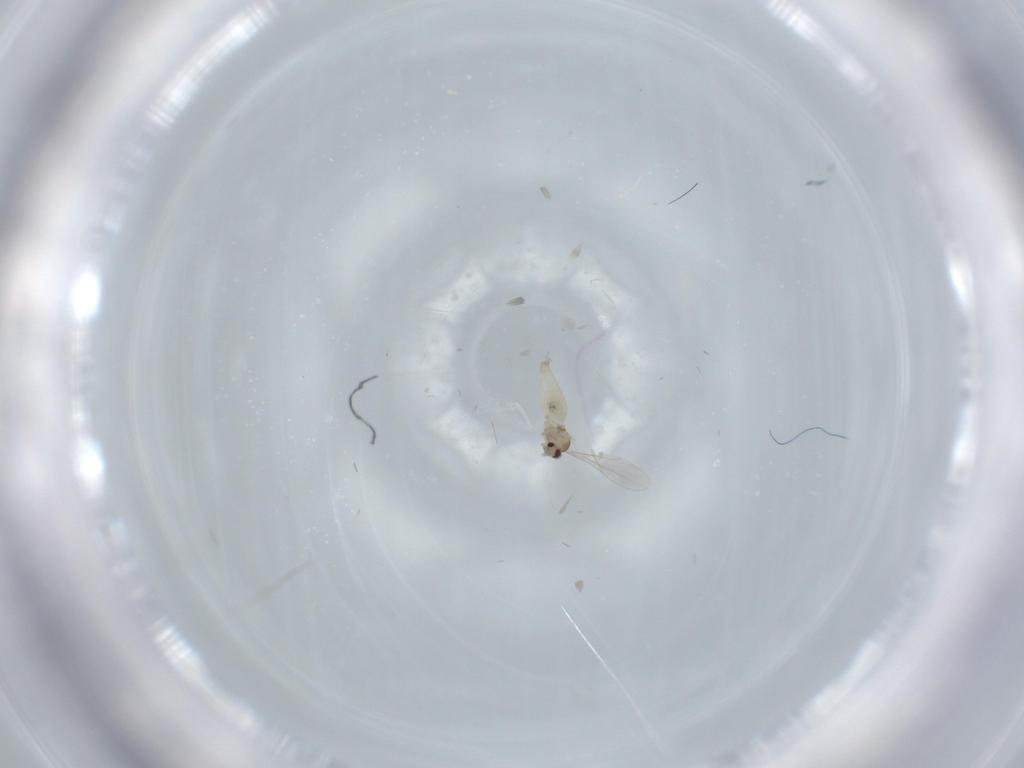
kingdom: Animalia
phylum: Arthropoda
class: Insecta
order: Diptera
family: Cecidomyiidae
